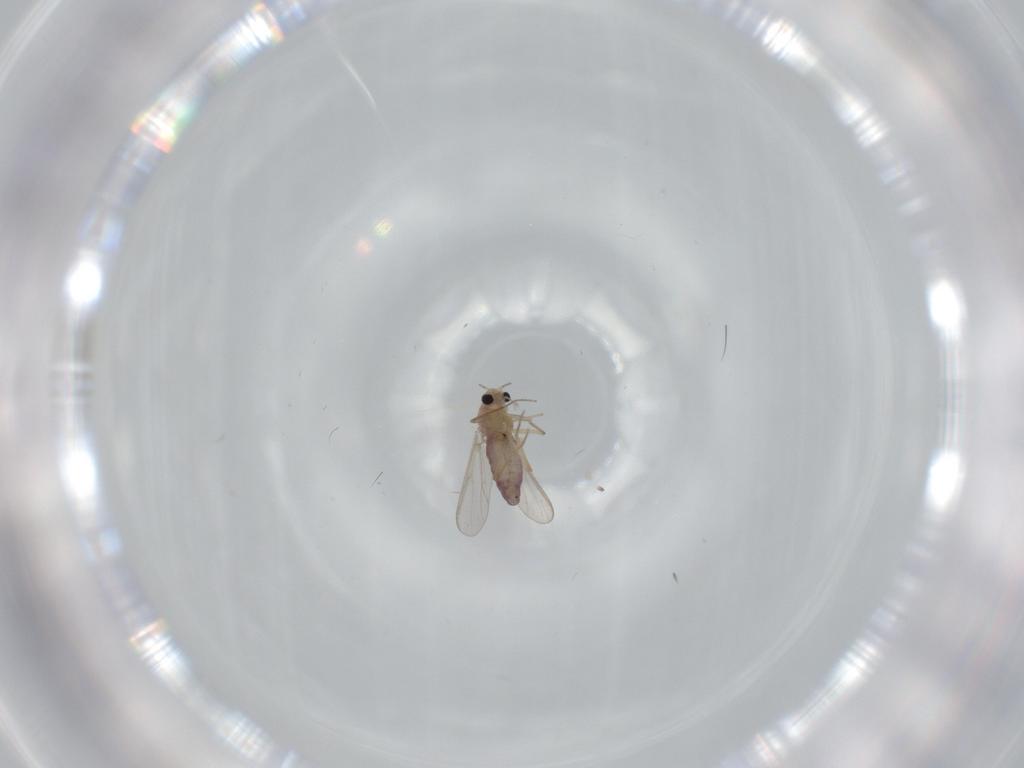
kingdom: Animalia
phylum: Arthropoda
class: Insecta
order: Diptera
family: Chironomidae
